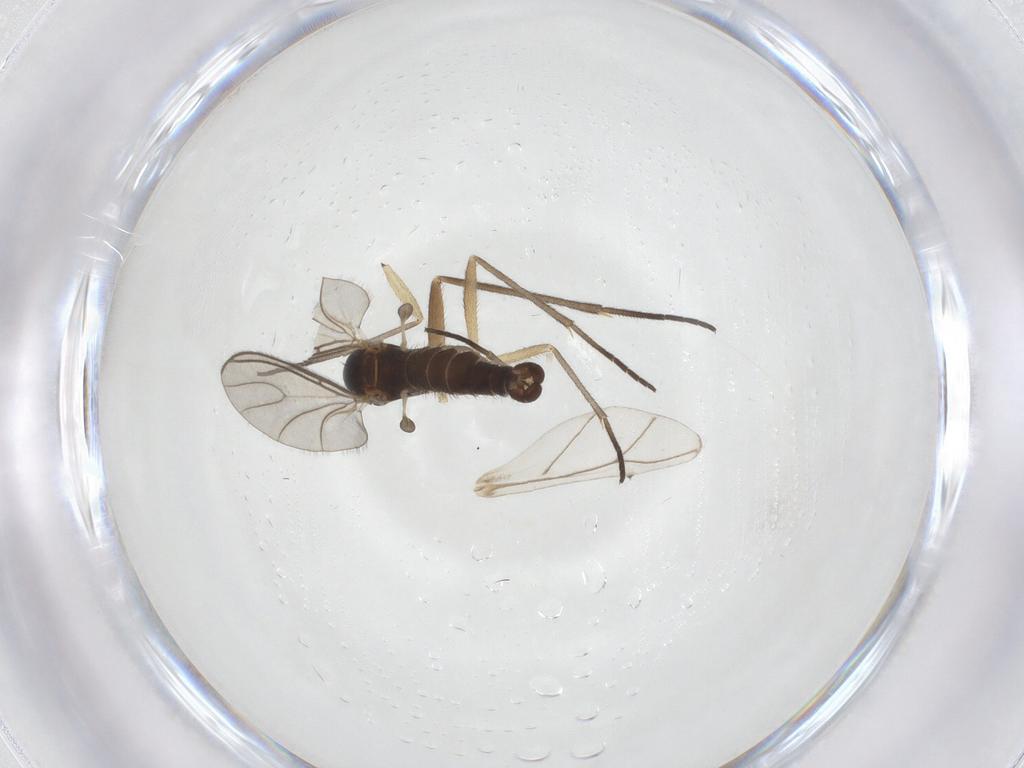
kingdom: Animalia
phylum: Arthropoda
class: Insecta
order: Diptera
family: Sciaridae
